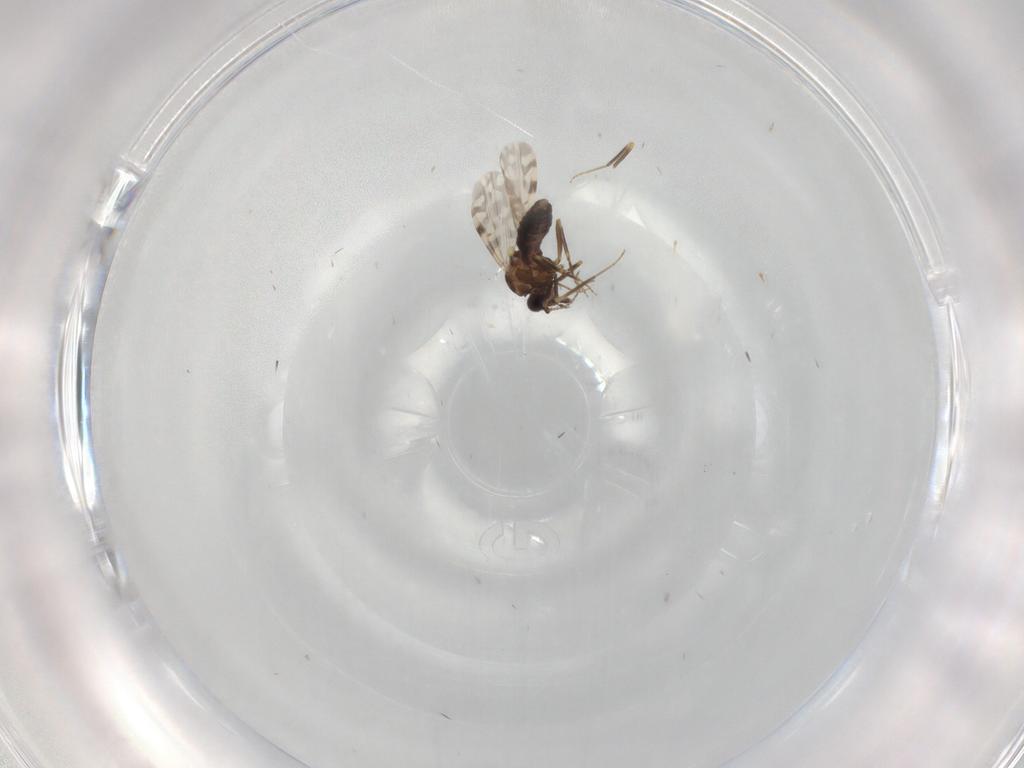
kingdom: Animalia
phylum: Arthropoda
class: Insecta
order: Diptera
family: Ceratopogonidae
